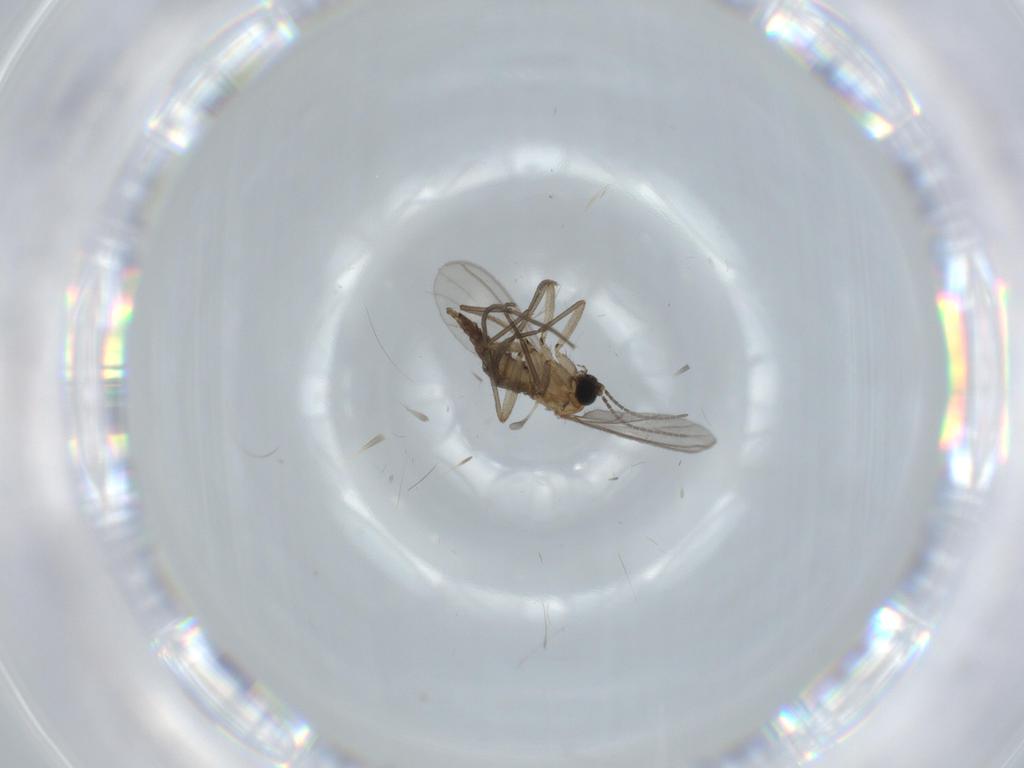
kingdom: Animalia
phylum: Arthropoda
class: Insecta
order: Diptera
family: Sciaridae
